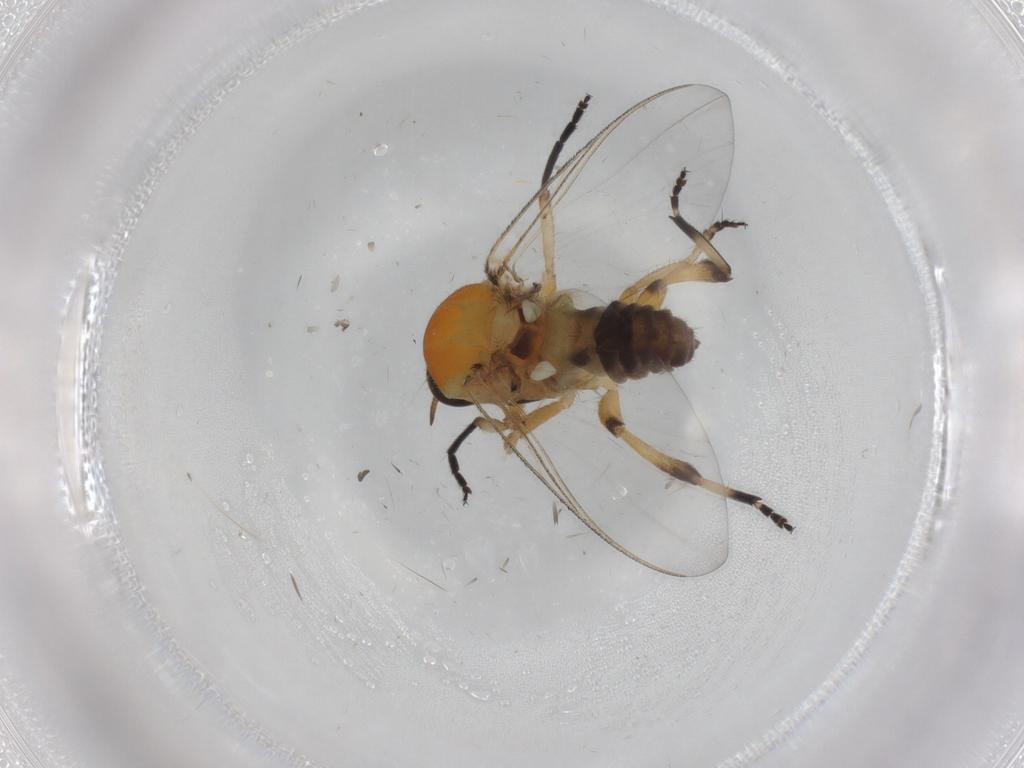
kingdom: Animalia
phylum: Arthropoda
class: Insecta
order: Diptera
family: Simuliidae
